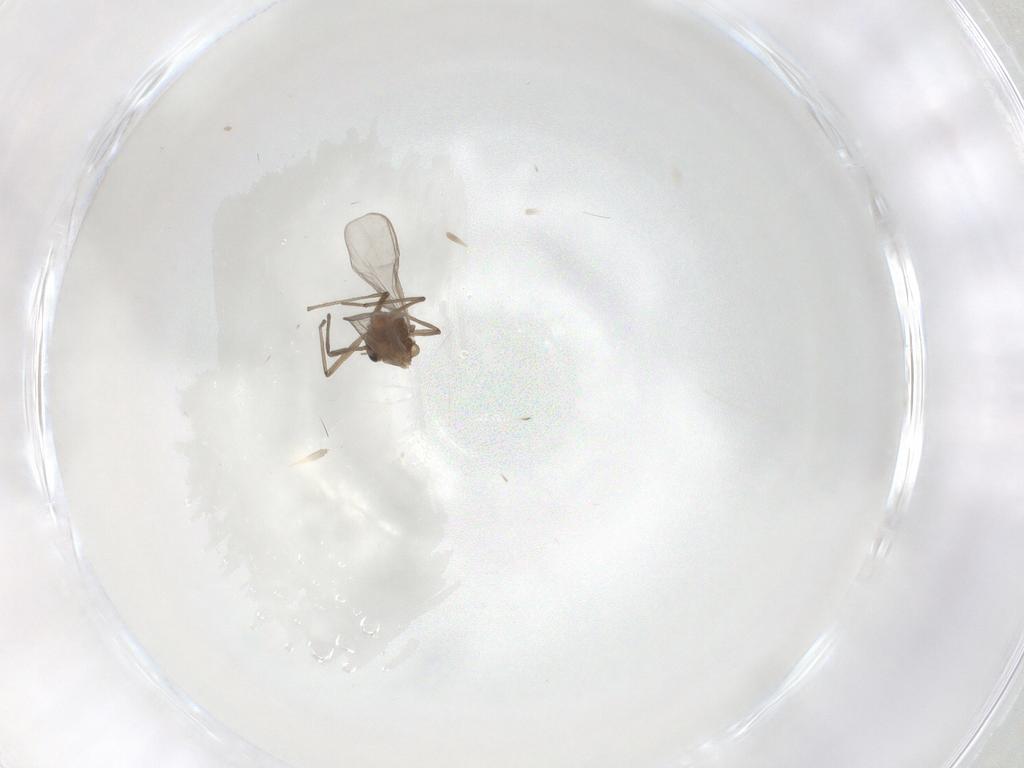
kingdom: Animalia
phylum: Arthropoda
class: Insecta
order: Diptera
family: Chironomidae
